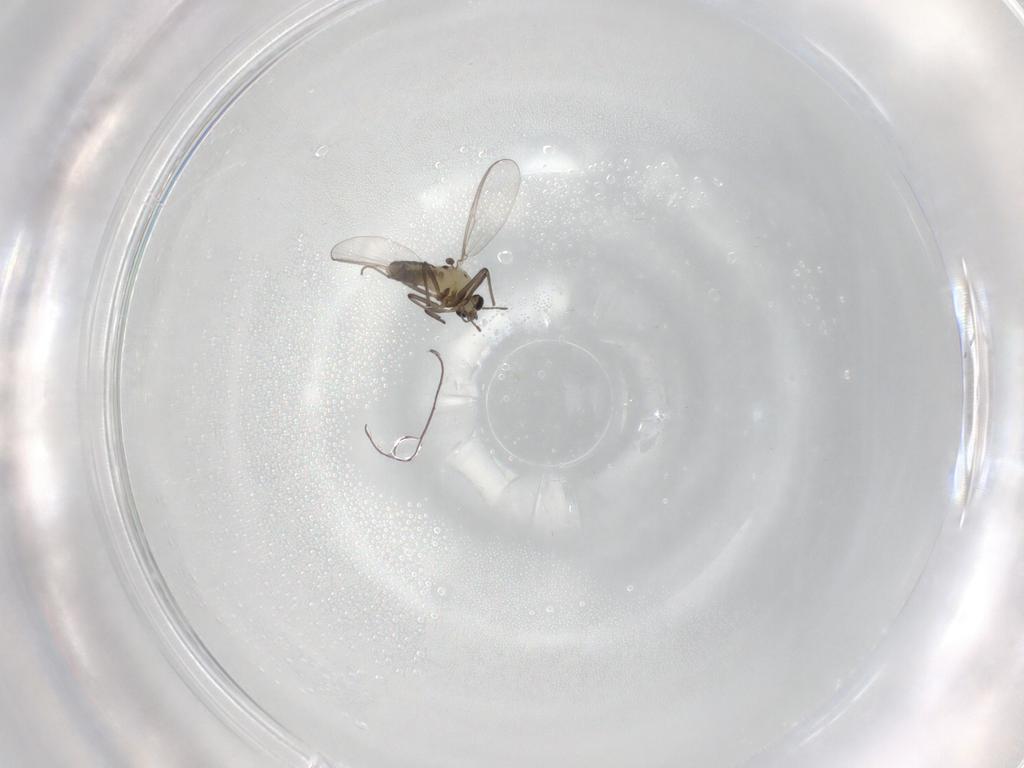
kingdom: Animalia
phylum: Arthropoda
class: Insecta
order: Diptera
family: Chironomidae
